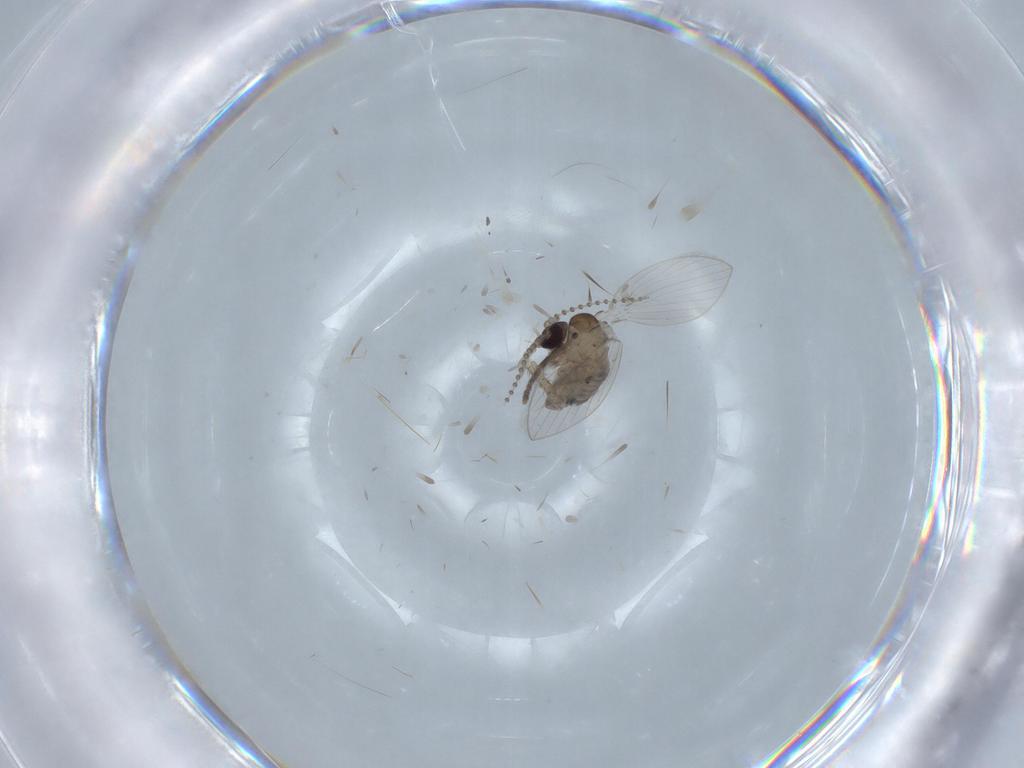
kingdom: Animalia
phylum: Arthropoda
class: Insecta
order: Diptera
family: Psychodidae
